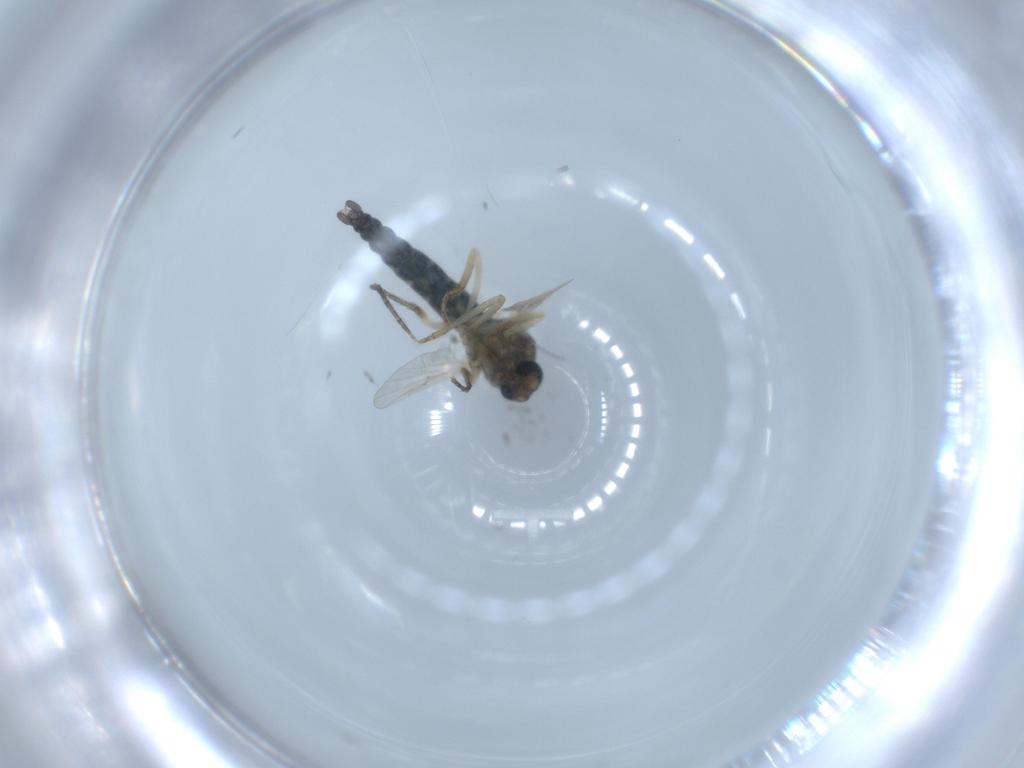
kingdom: Animalia
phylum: Arthropoda
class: Insecta
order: Diptera
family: Ceratopogonidae
